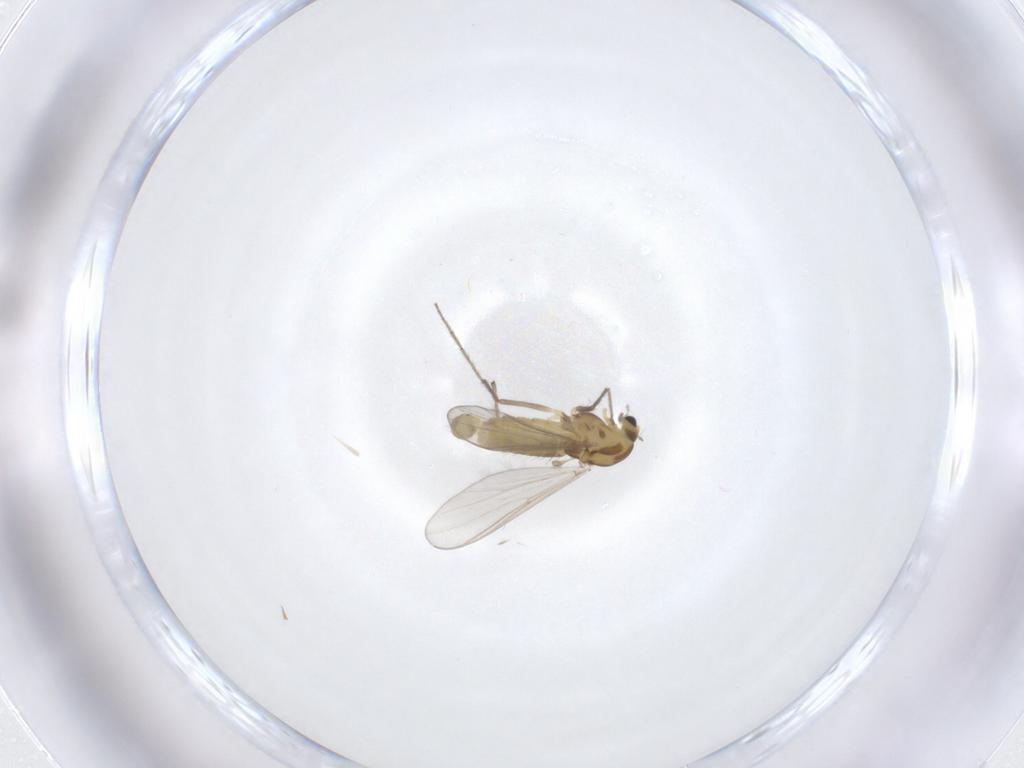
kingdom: Animalia
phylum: Arthropoda
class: Insecta
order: Diptera
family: Chironomidae
